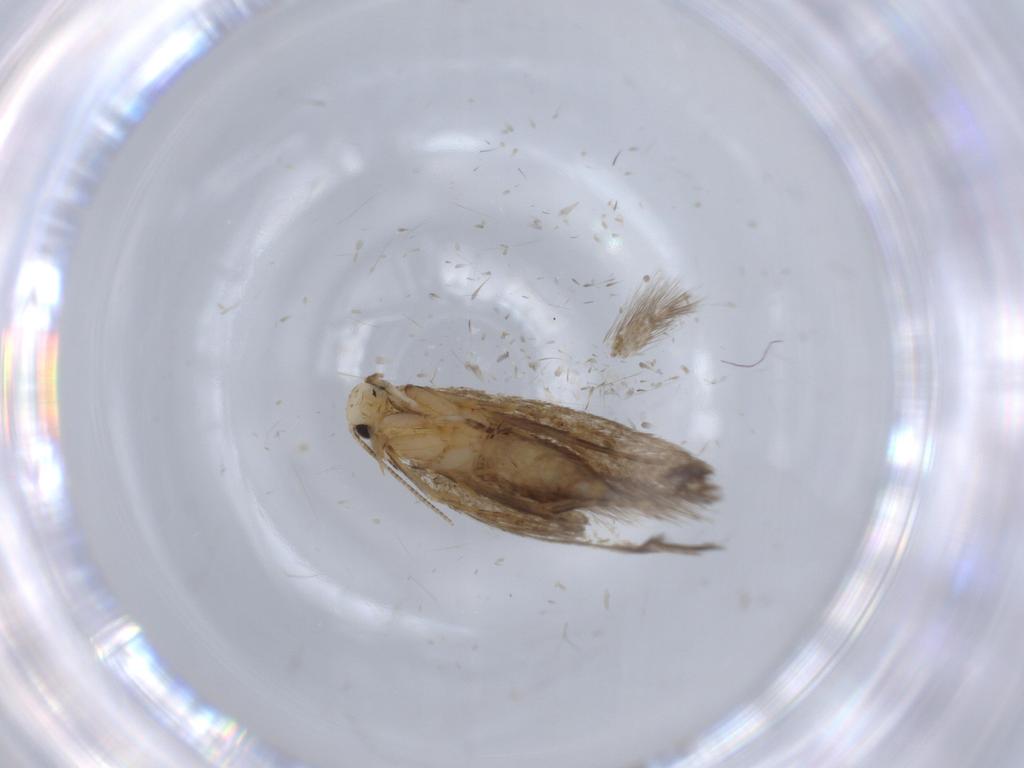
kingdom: Animalia
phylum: Arthropoda
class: Insecta
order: Lepidoptera
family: Tineidae
